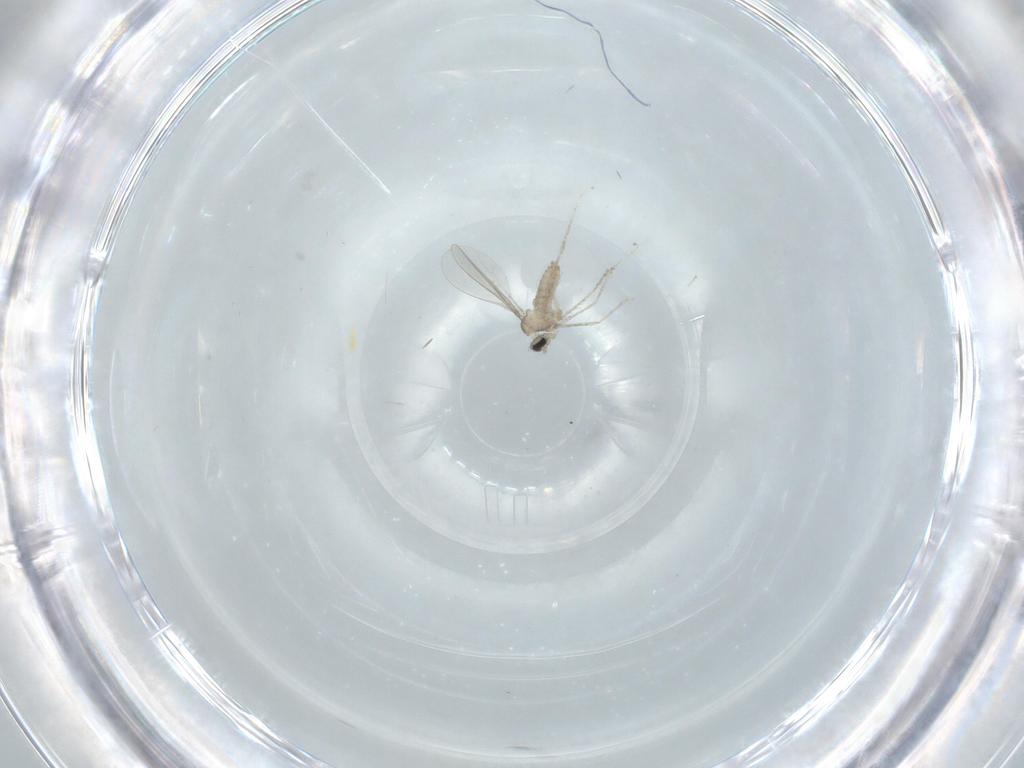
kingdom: Animalia
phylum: Arthropoda
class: Insecta
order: Diptera
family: Cecidomyiidae
